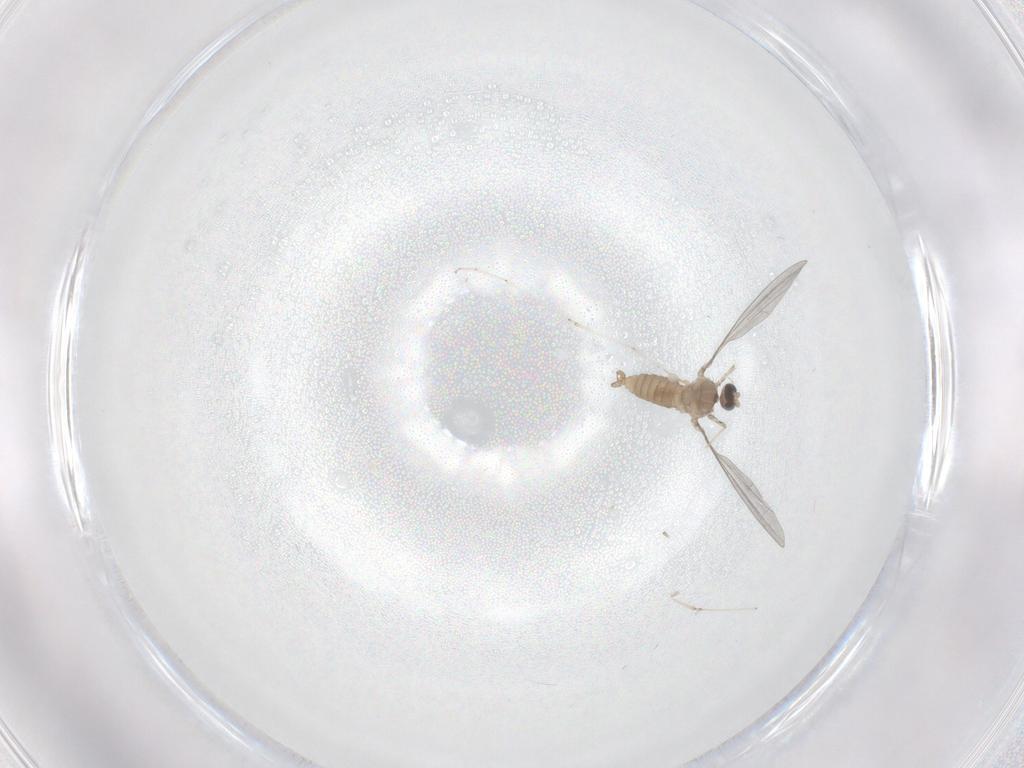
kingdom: Animalia
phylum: Arthropoda
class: Insecta
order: Diptera
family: Cecidomyiidae
